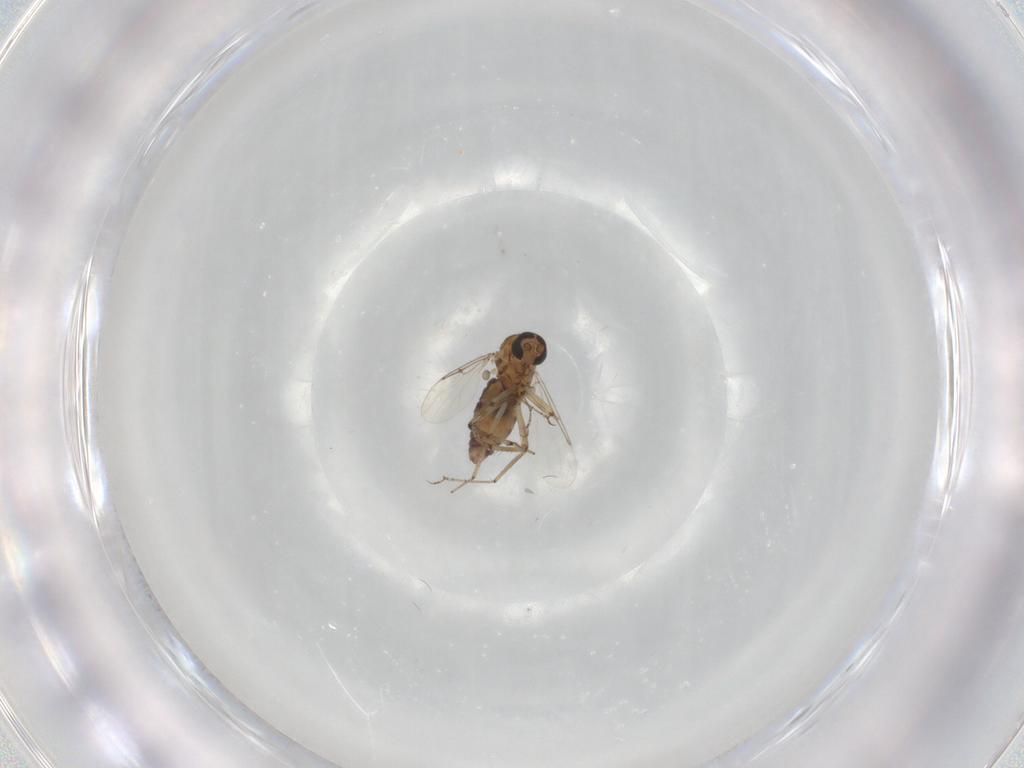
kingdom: Animalia
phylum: Arthropoda
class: Insecta
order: Diptera
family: Ceratopogonidae
